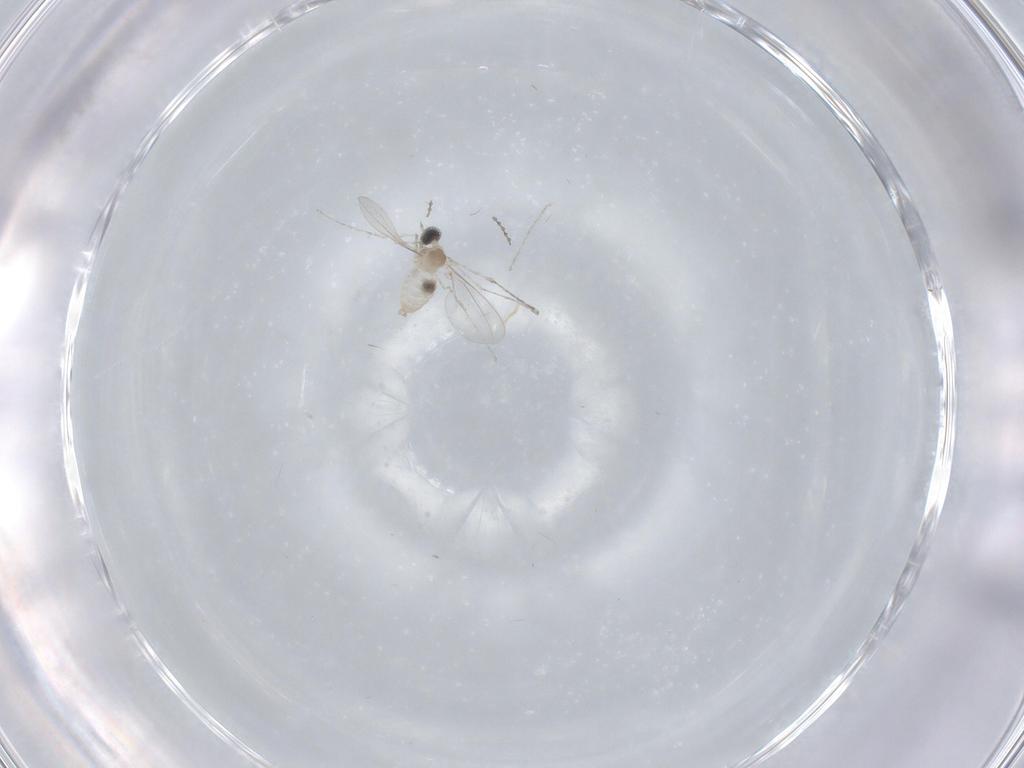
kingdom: Animalia
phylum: Arthropoda
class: Insecta
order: Diptera
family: Cecidomyiidae
